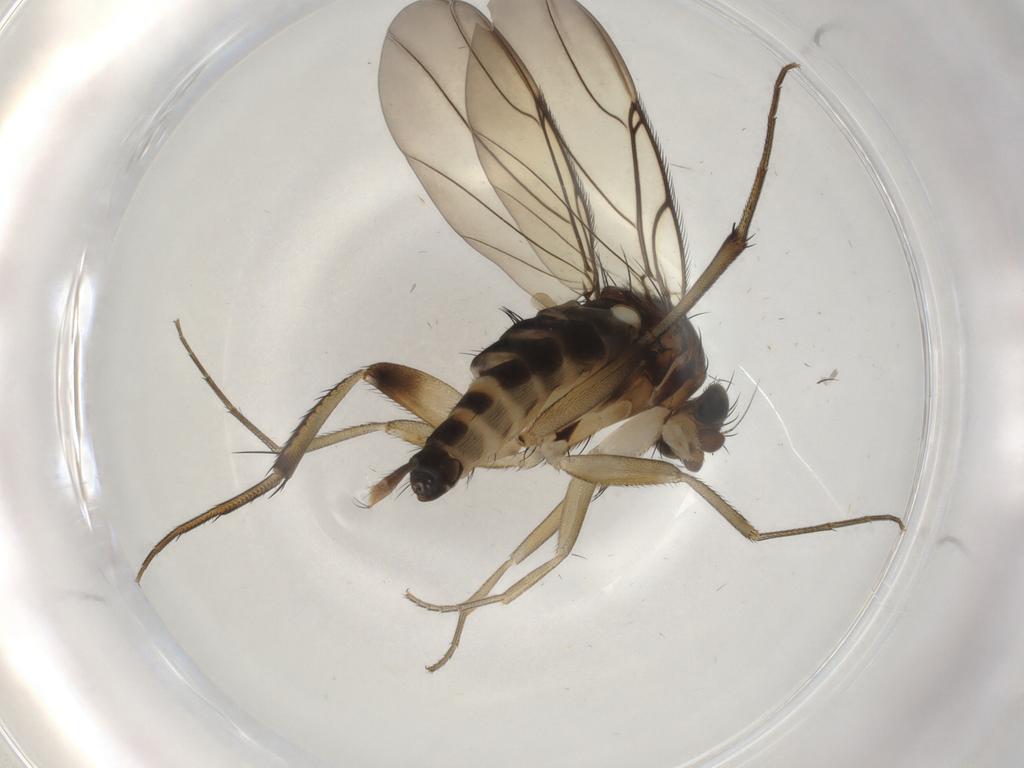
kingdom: Animalia
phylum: Arthropoda
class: Insecta
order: Diptera
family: Phoridae
